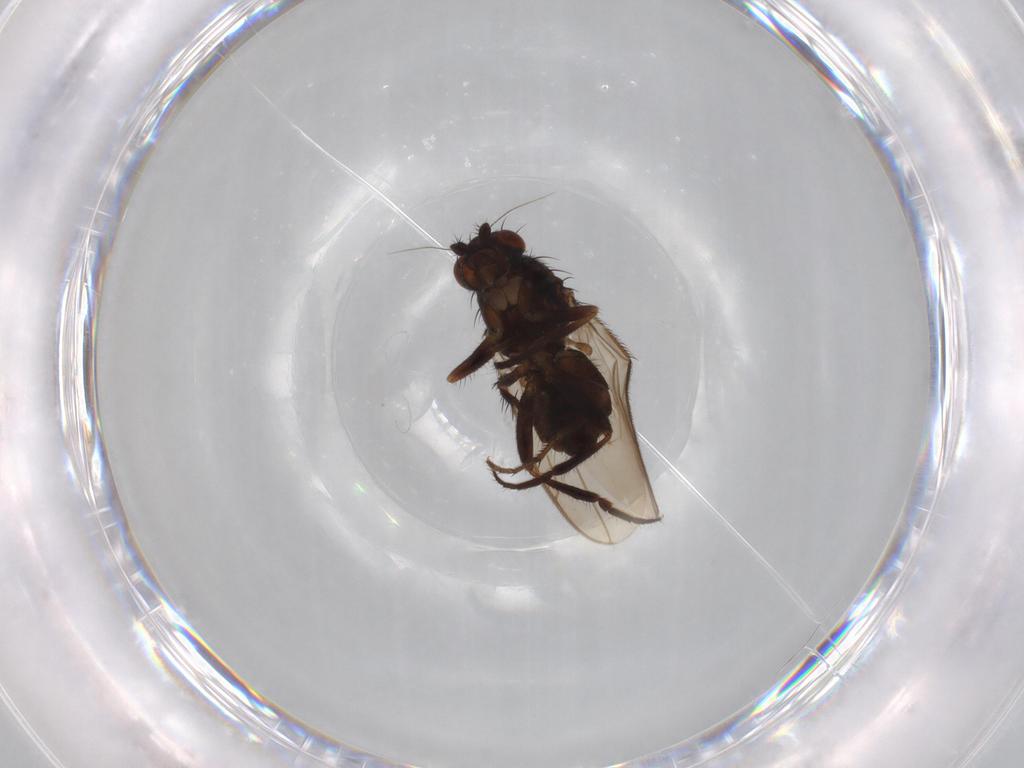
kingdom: Animalia
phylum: Arthropoda
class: Insecta
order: Diptera
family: Sphaeroceridae
